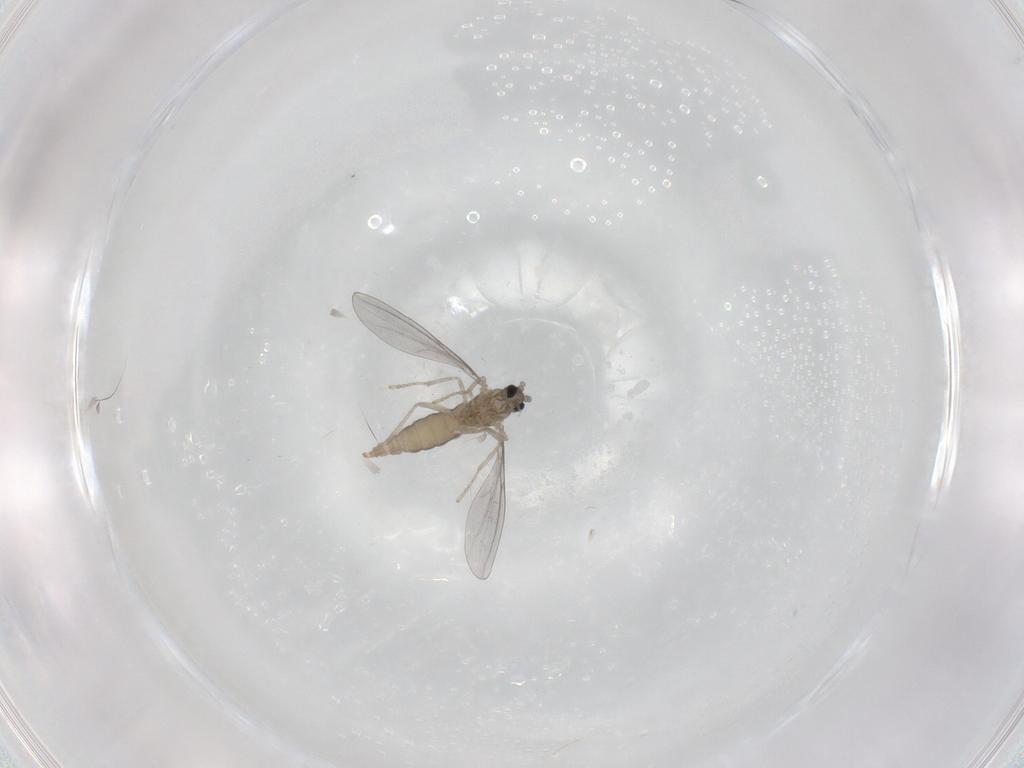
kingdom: Animalia
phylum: Arthropoda
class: Insecta
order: Diptera
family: Cecidomyiidae
